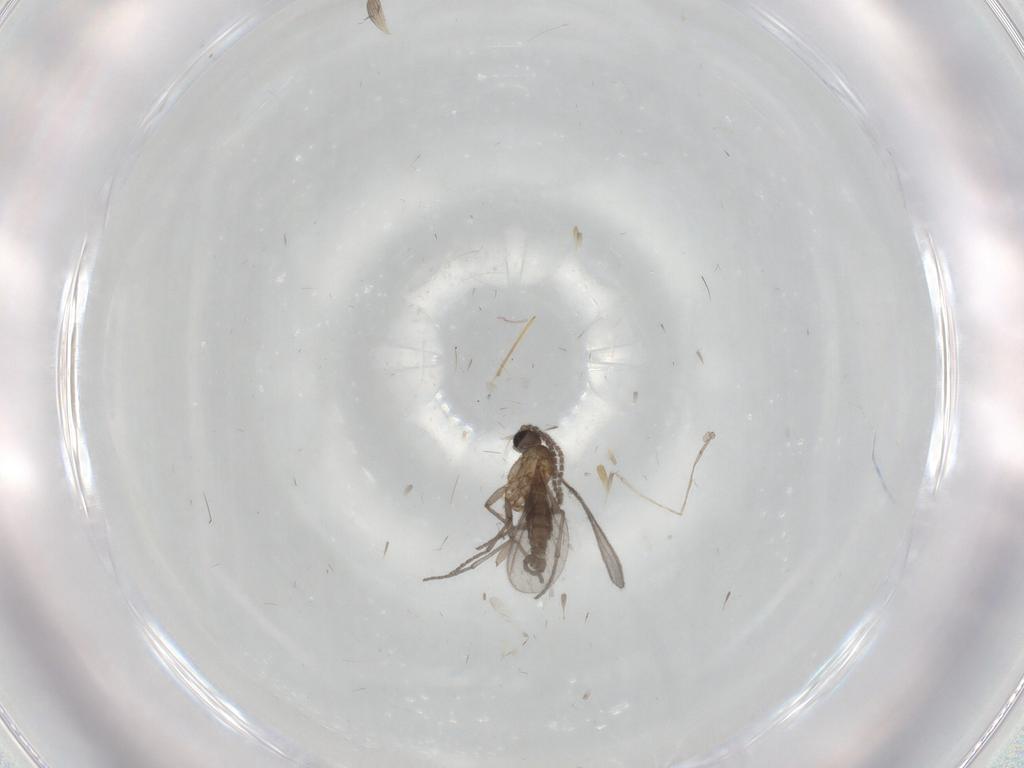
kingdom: Animalia
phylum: Arthropoda
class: Insecta
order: Diptera
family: Sciaridae
